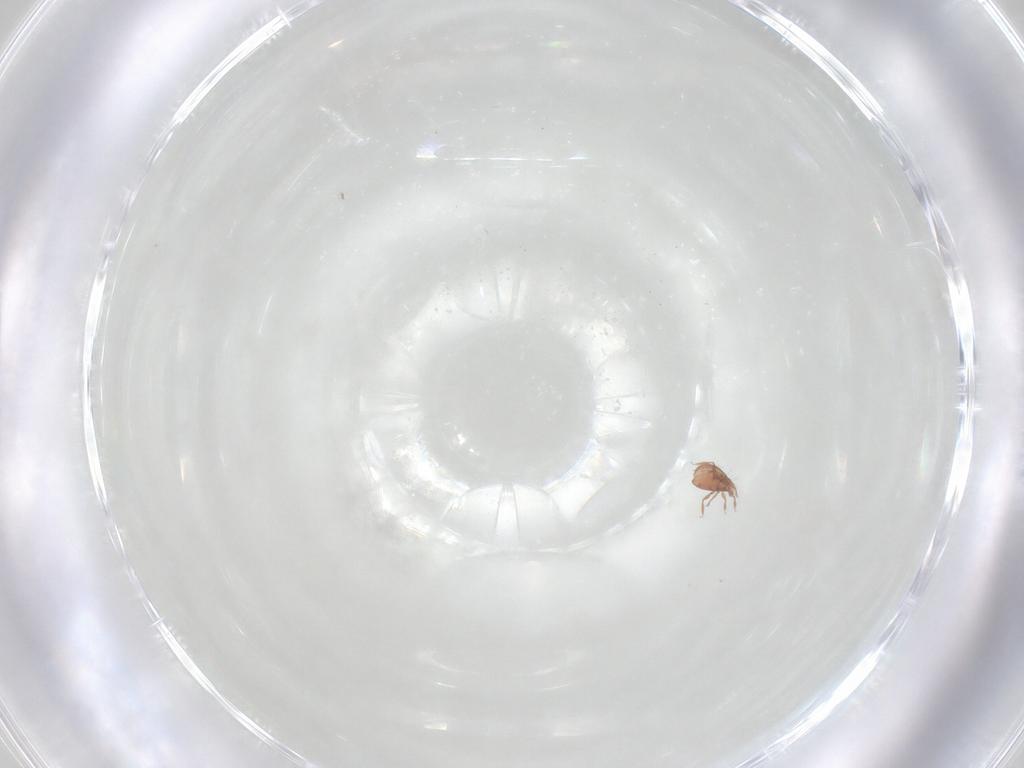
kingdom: Animalia
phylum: Arthropoda
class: Arachnida
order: Sarcoptiformes
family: Oribatulidae
